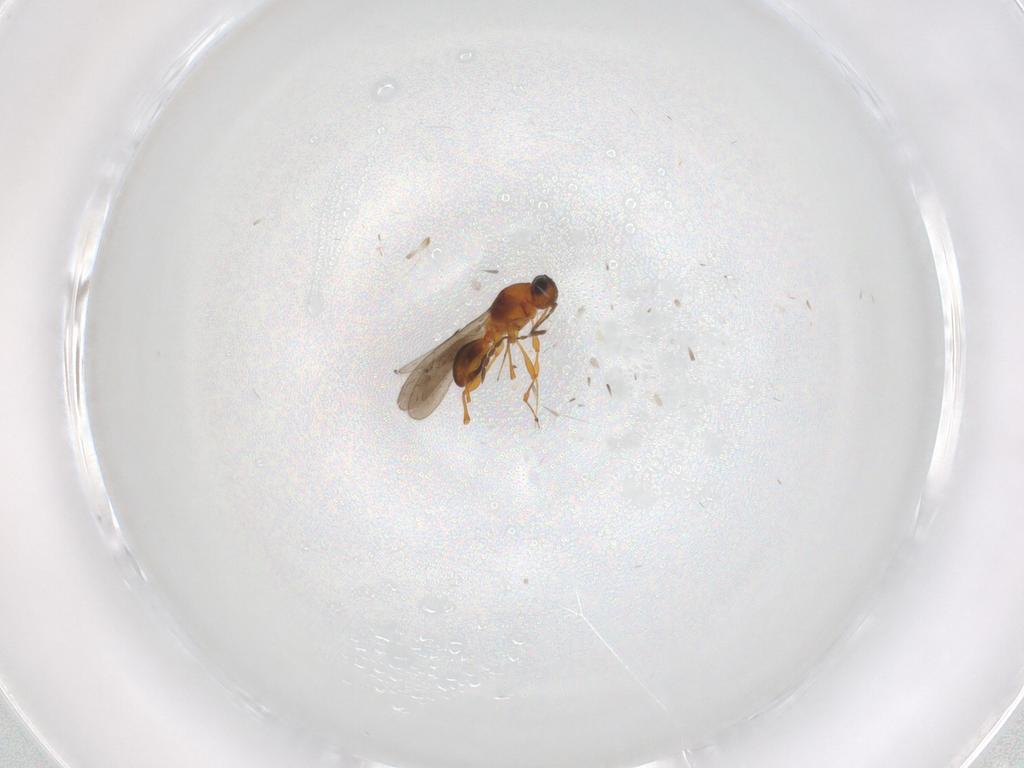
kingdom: Animalia
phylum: Arthropoda
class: Insecta
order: Hymenoptera
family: Platygastridae
